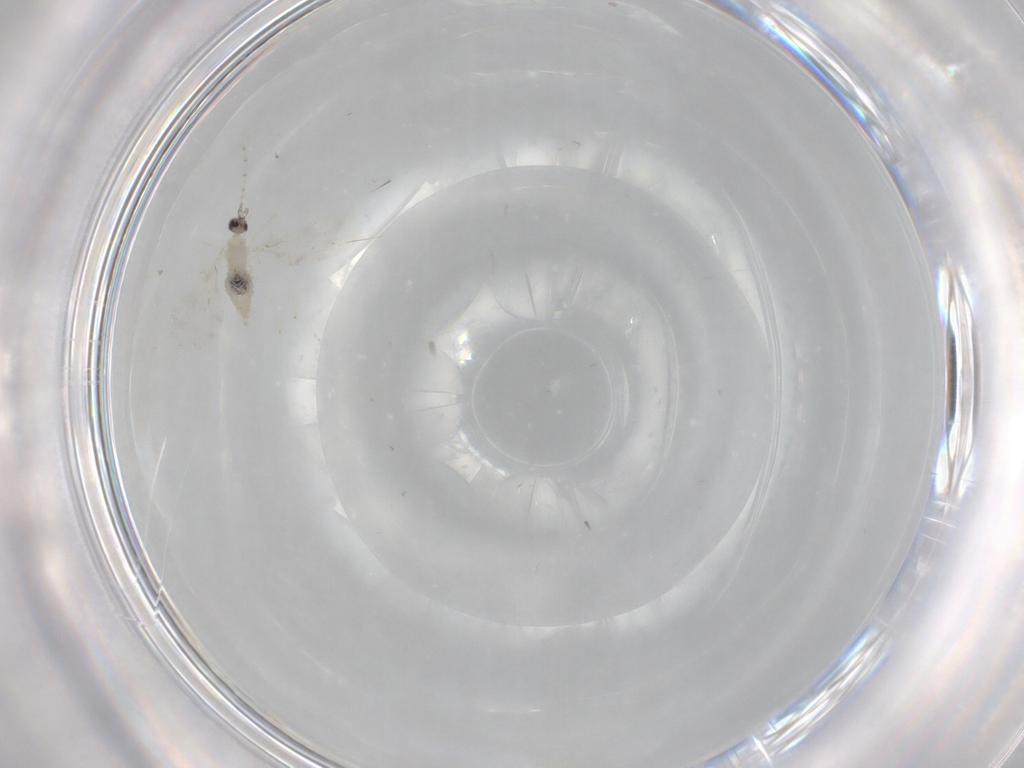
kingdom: Animalia
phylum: Arthropoda
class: Insecta
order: Diptera
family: Cecidomyiidae
